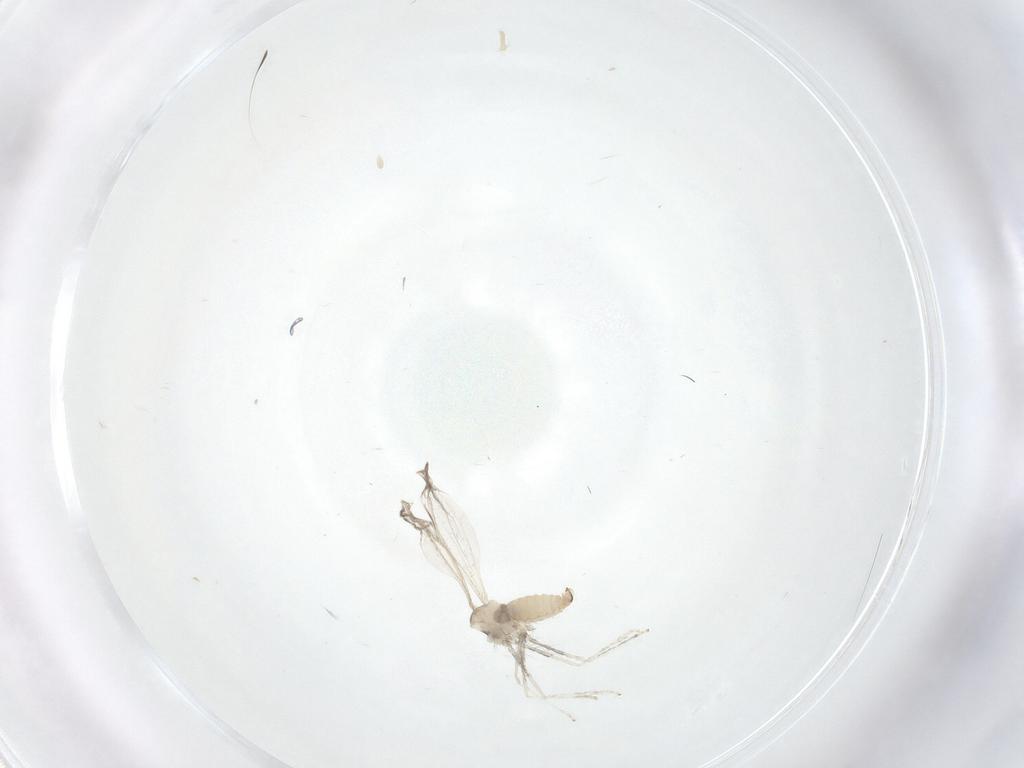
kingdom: Animalia
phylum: Arthropoda
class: Insecta
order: Diptera
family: Cecidomyiidae
